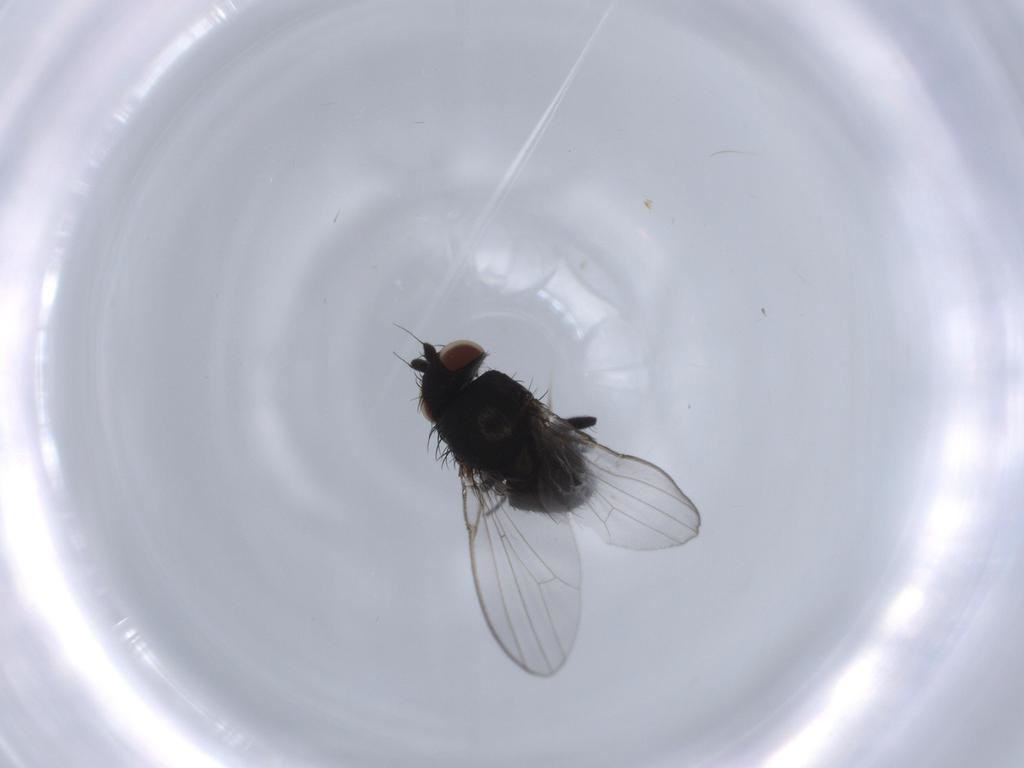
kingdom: Animalia
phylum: Arthropoda
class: Insecta
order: Diptera
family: Milichiidae
